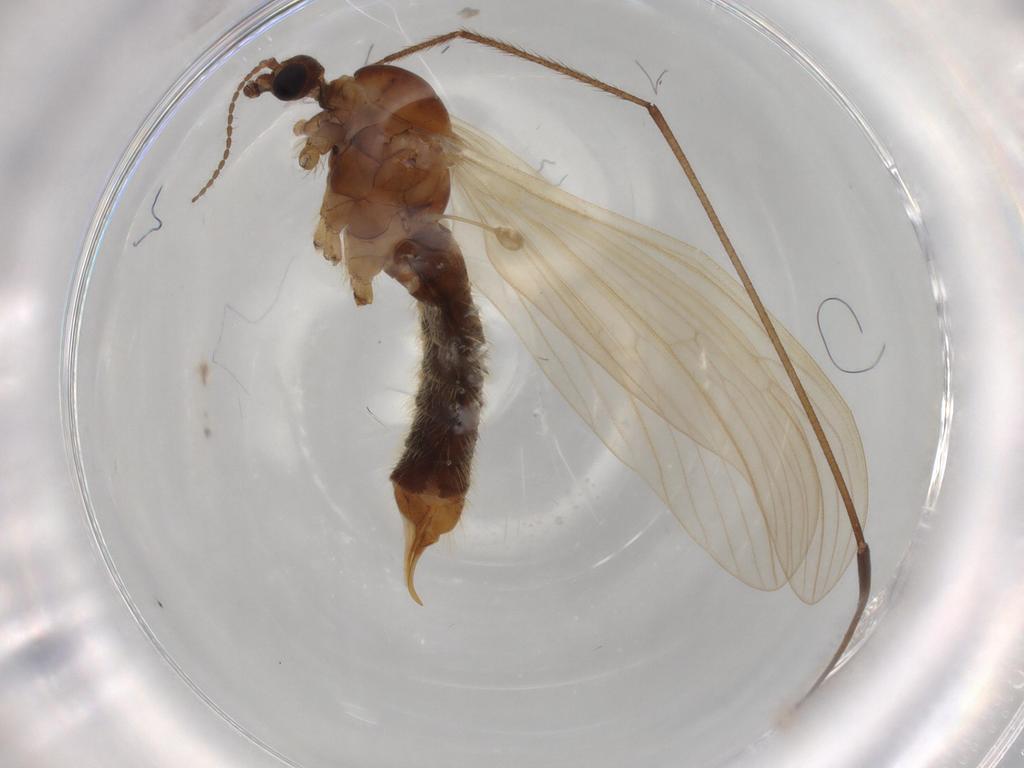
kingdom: Animalia
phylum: Arthropoda
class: Insecta
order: Diptera
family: Limoniidae
